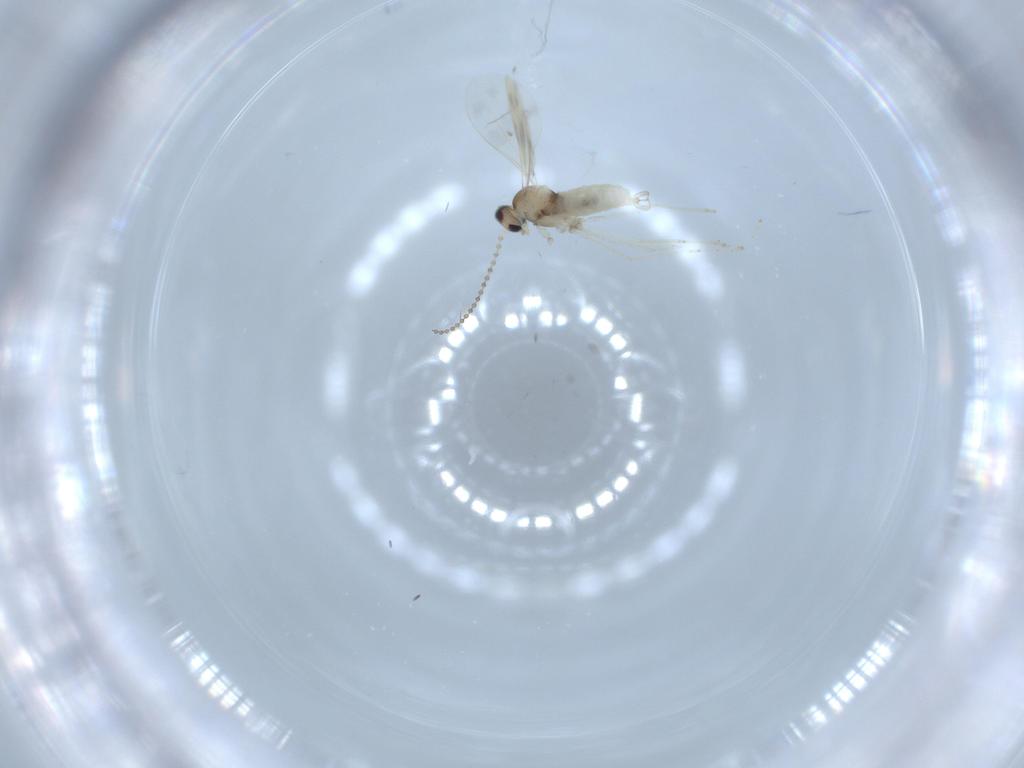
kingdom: Animalia
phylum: Arthropoda
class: Insecta
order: Diptera
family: Cecidomyiidae
